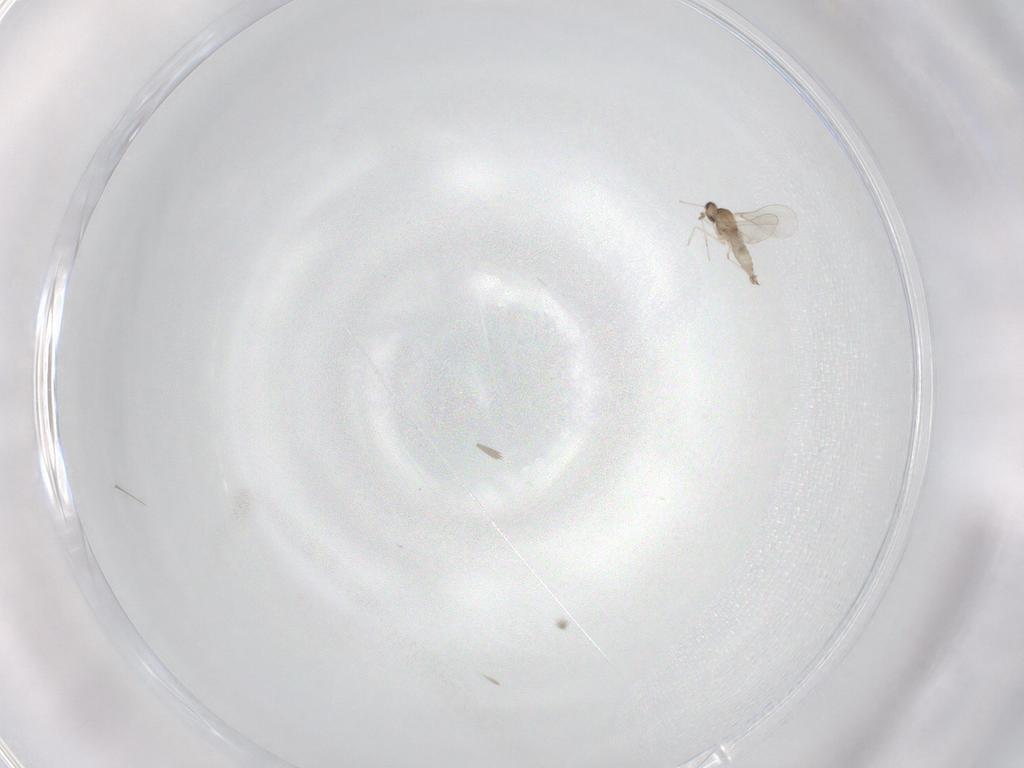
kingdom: Animalia
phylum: Arthropoda
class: Insecta
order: Diptera
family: Cecidomyiidae
